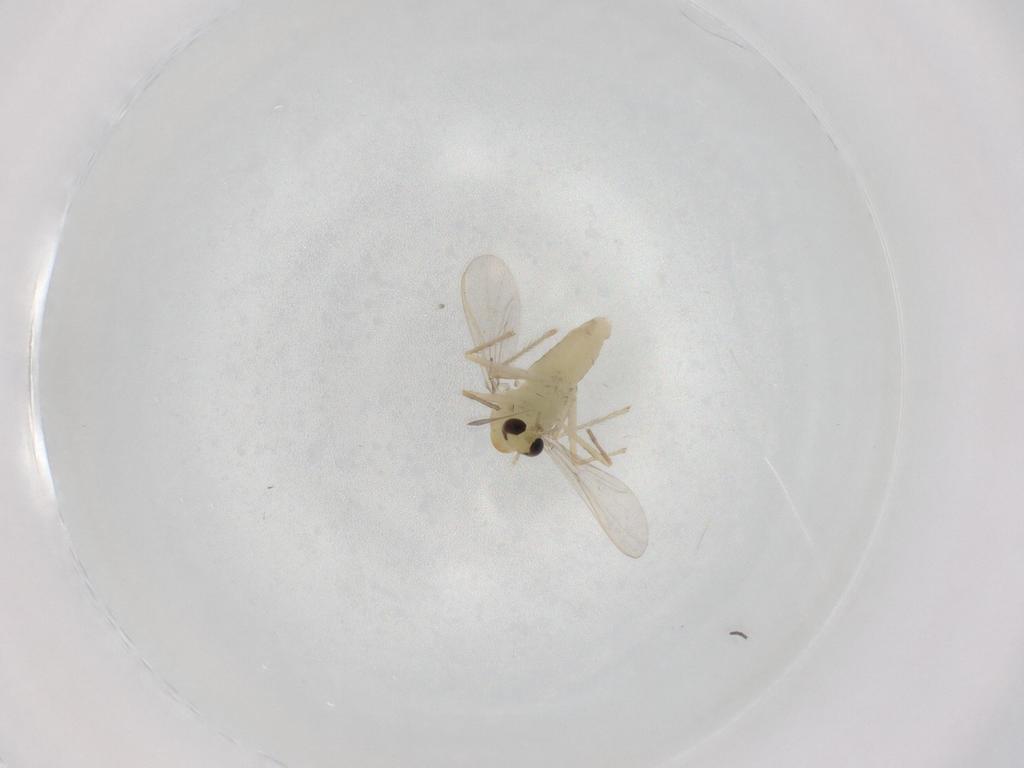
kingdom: Animalia
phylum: Arthropoda
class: Insecta
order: Diptera
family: Chironomidae
